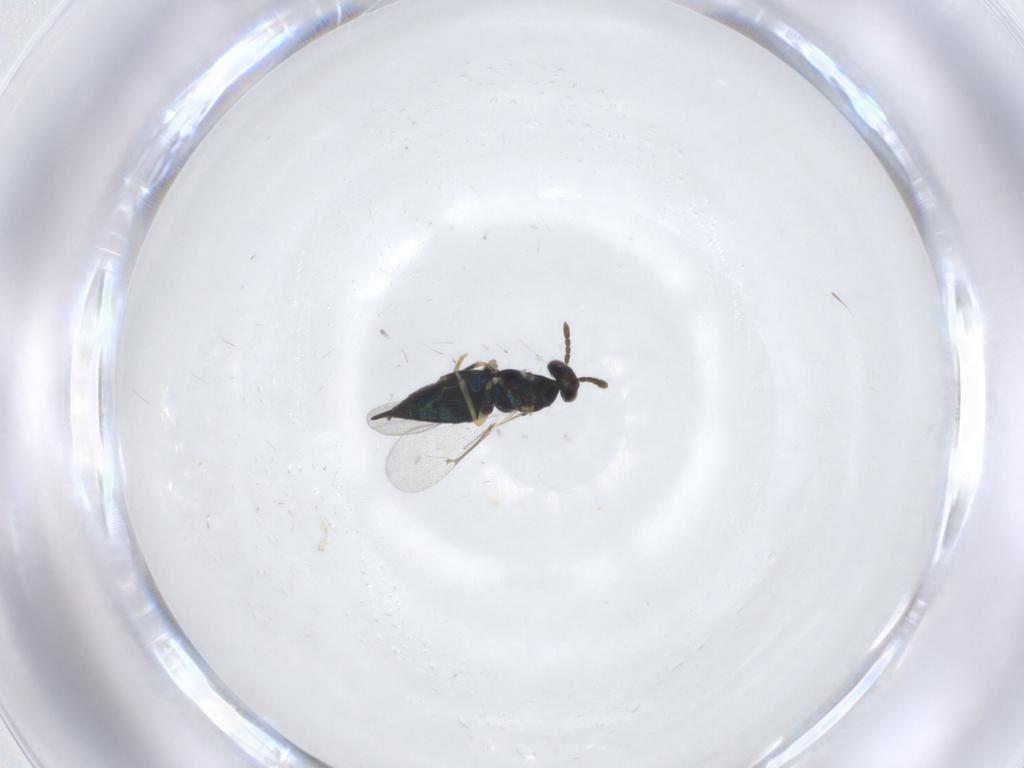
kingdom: Animalia
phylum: Arthropoda
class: Insecta
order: Hymenoptera
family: Eulophidae
